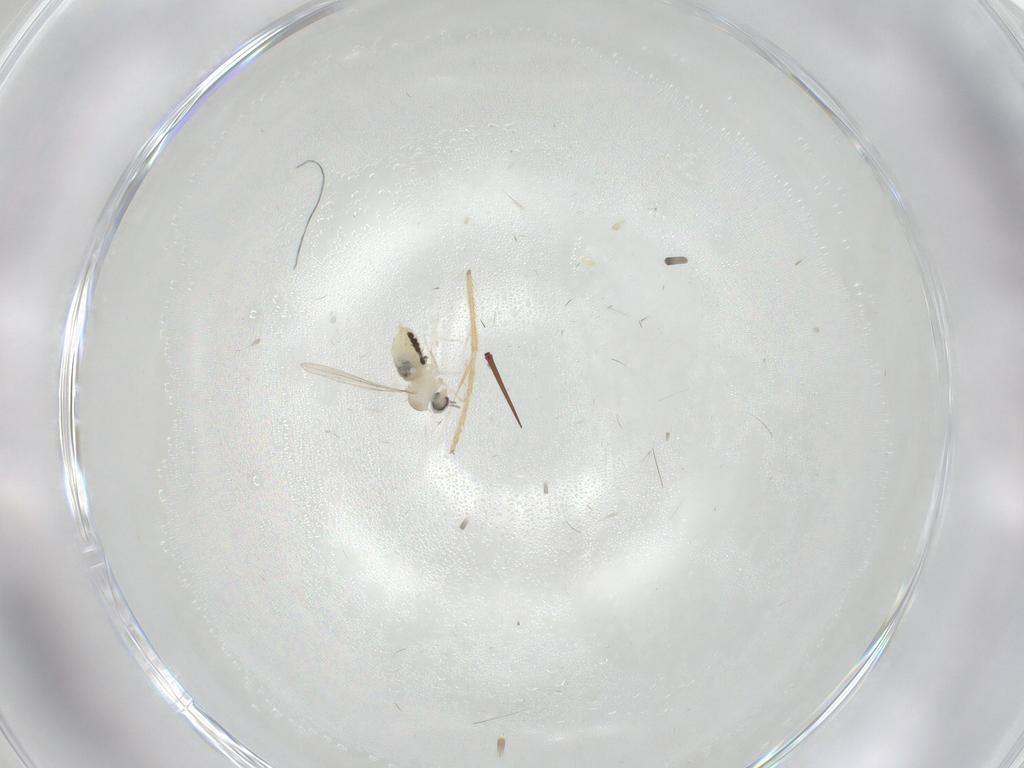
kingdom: Animalia
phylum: Arthropoda
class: Insecta
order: Diptera
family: Cecidomyiidae
